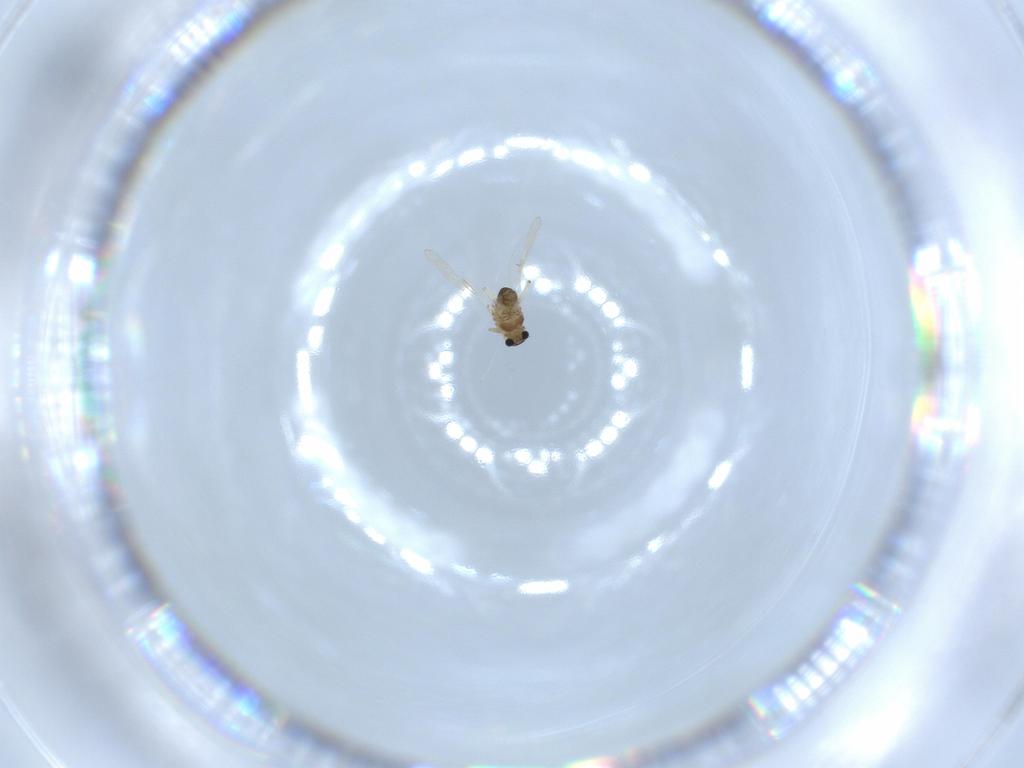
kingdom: Animalia
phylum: Arthropoda
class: Insecta
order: Diptera
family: Chironomidae
